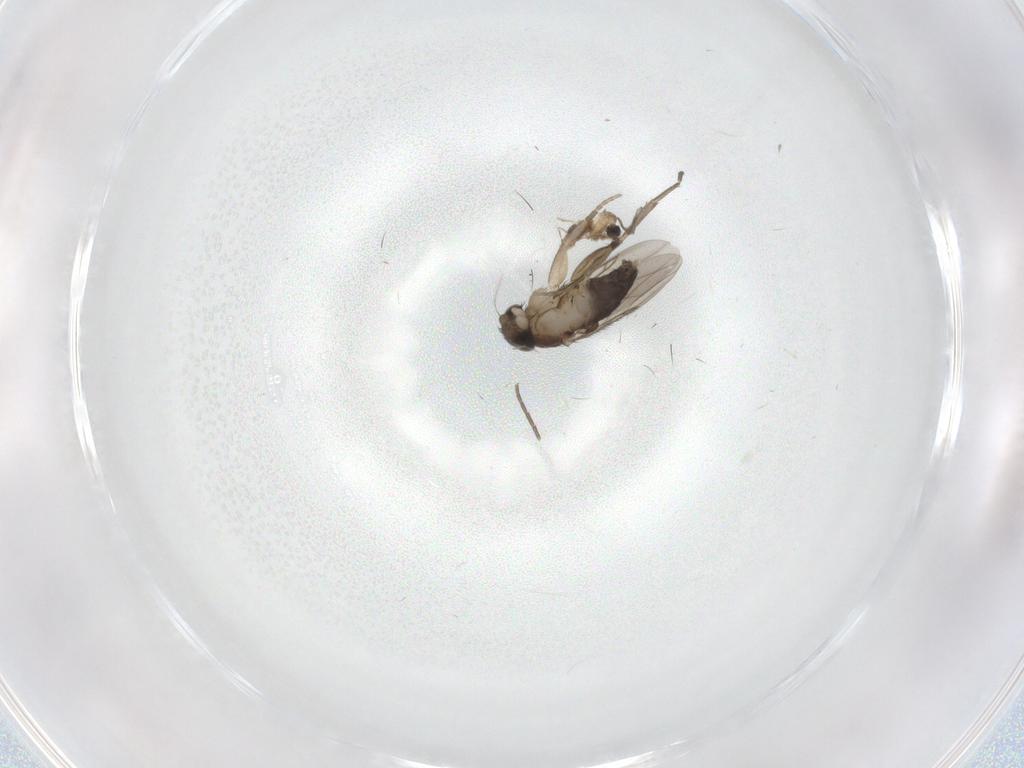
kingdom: Animalia
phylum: Arthropoda
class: Insecta
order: Diptera
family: Phoridae
